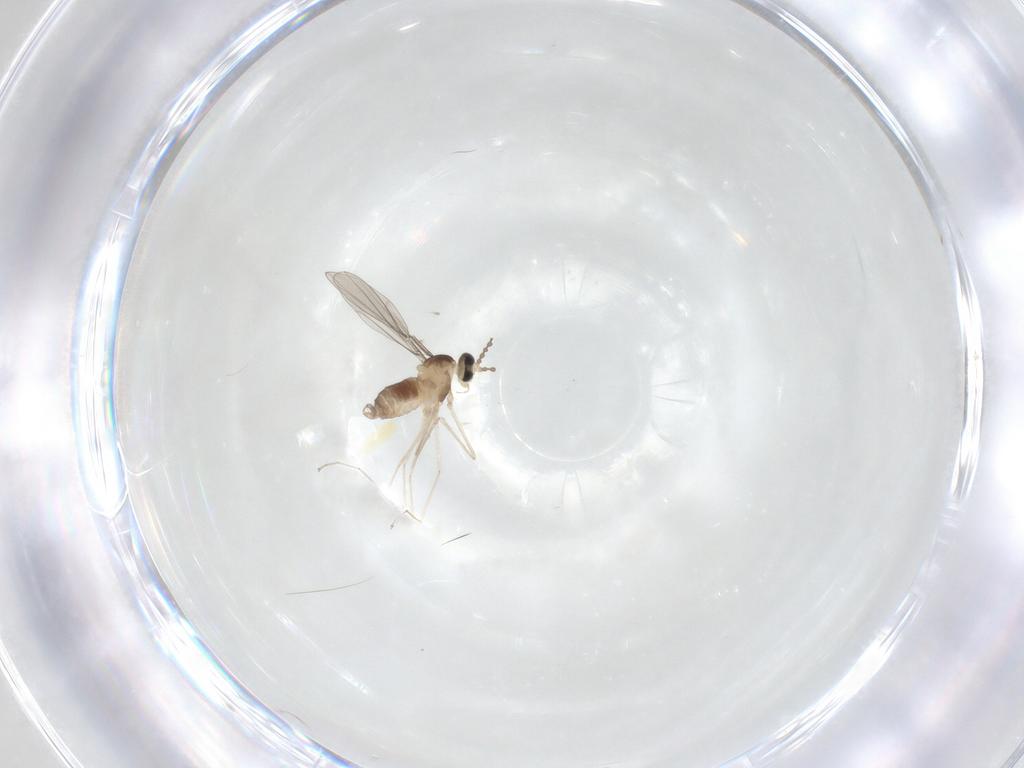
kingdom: Animalia
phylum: Arthropoda
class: Insecta
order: Diptera
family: Cecidomyiidae
